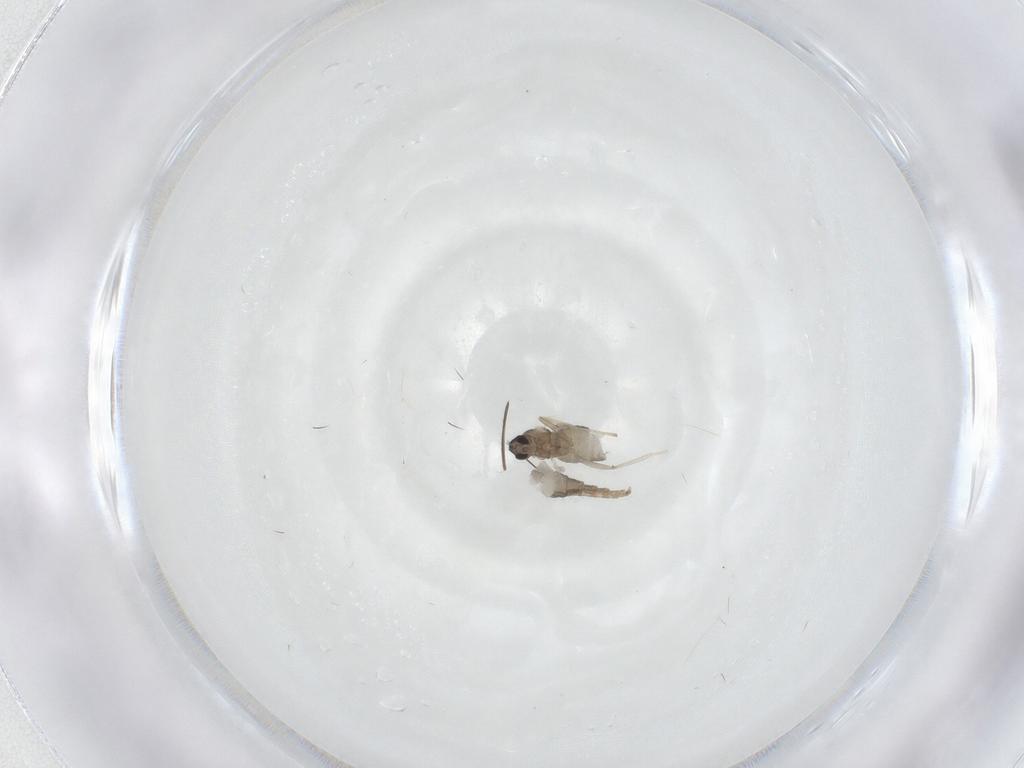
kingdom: Animalia
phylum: Arthropoda
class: Insecta
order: Diptera
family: Cecidomyiidae
